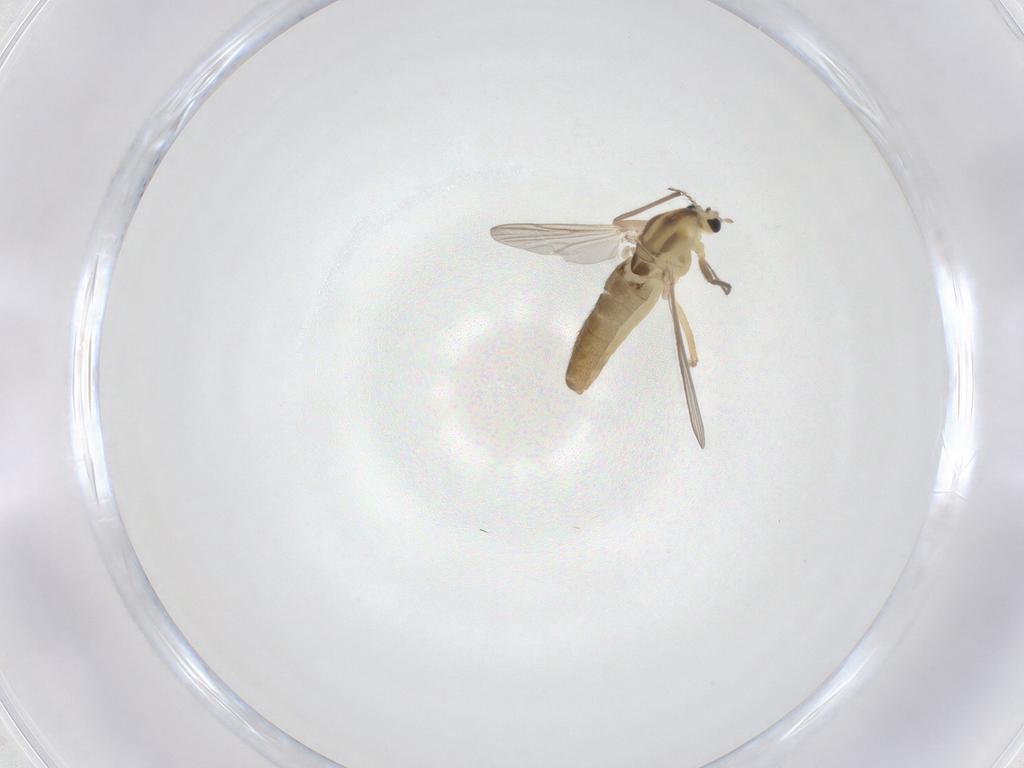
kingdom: Animalia
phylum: Arthropoda
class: Insecta
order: Diptera
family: Chironomidae
